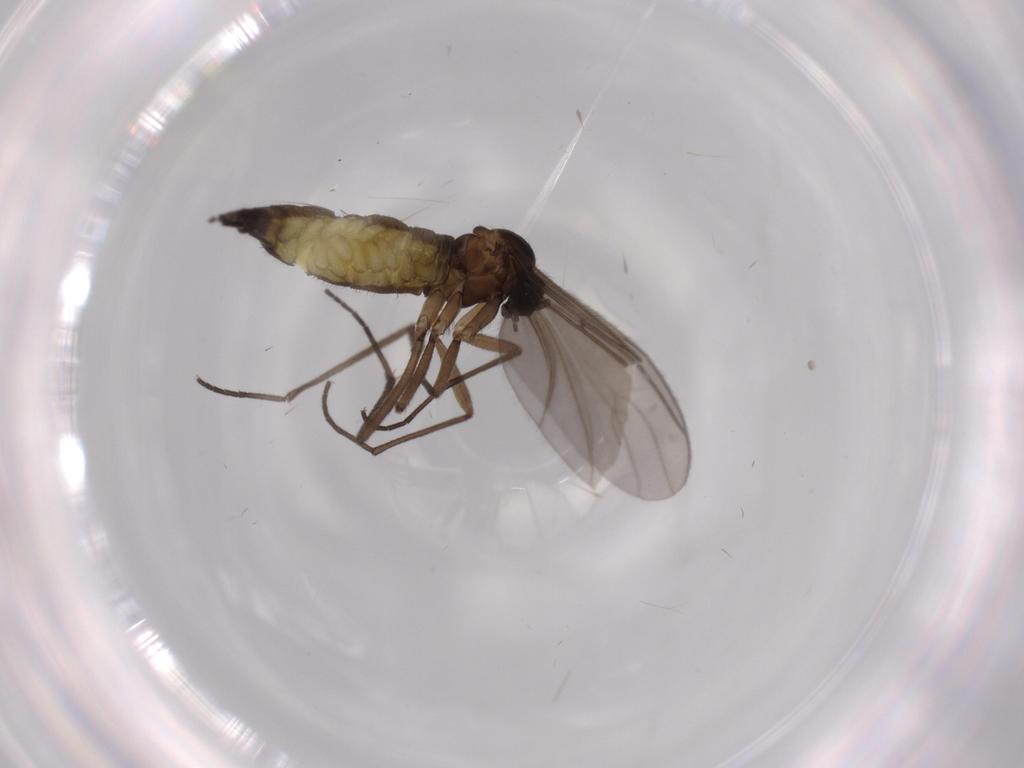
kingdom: Animalia
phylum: Arthropoda
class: Insecta
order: Diptera
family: Sciaridae
